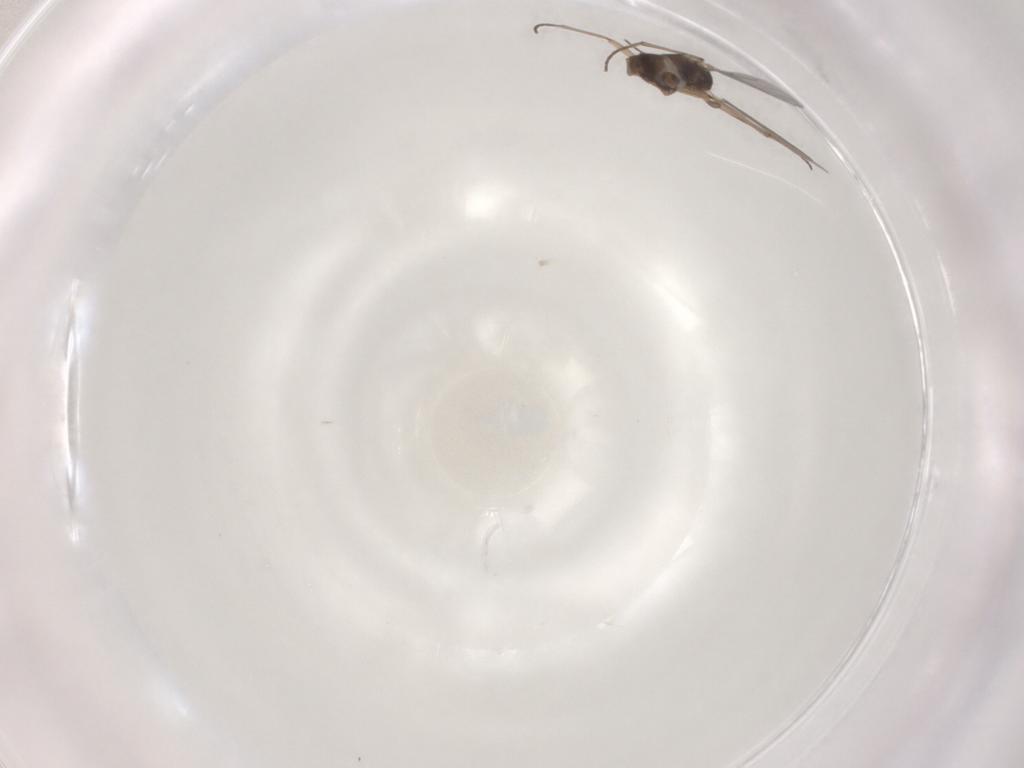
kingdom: Animalia
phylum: Arthropoda
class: Insecta
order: Diptera
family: Sciaridae
